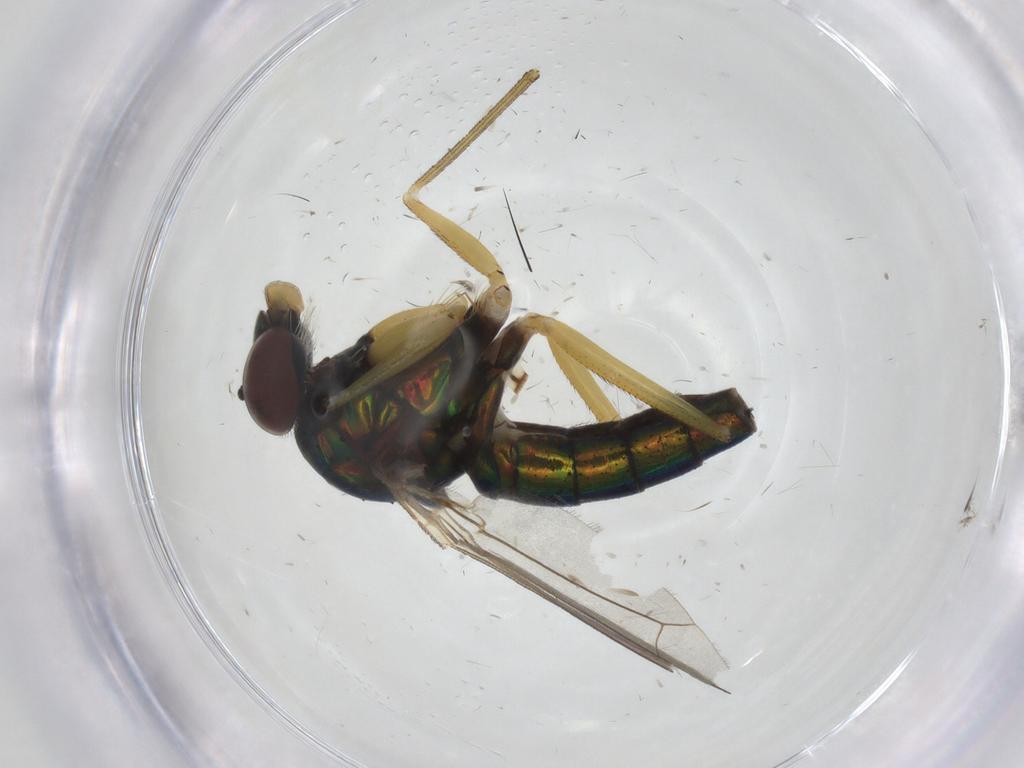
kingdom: Animalia
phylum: Arthropoda
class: Insecta
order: Diptera
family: Dolichopodidae
